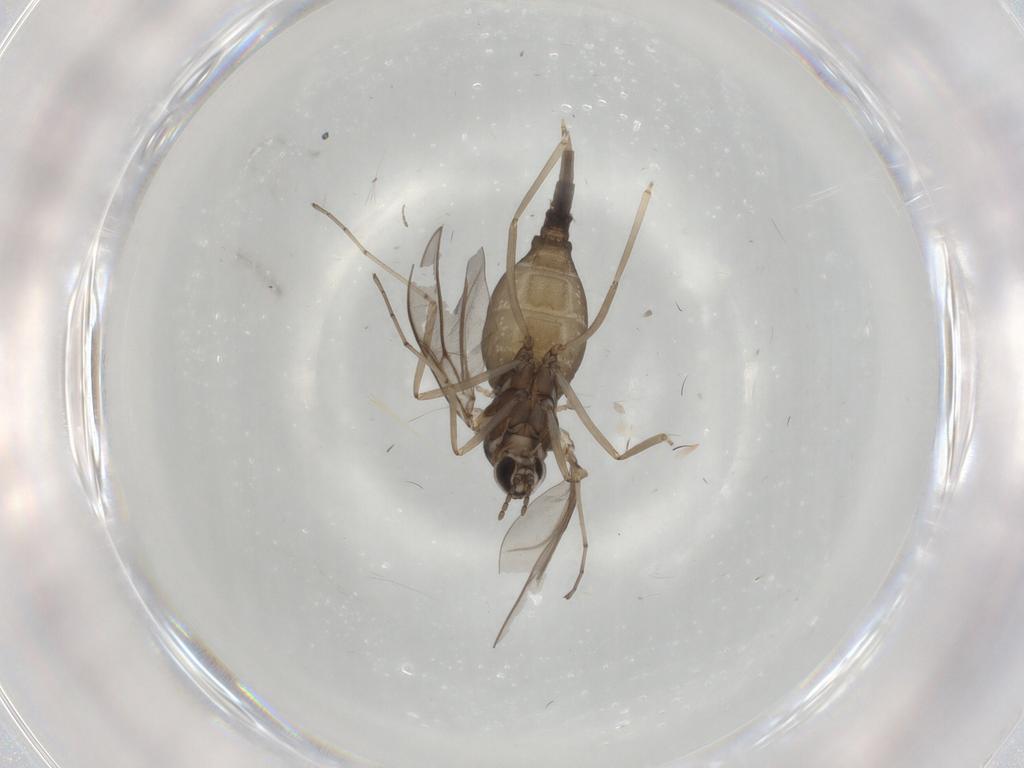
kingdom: Animalia
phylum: Arthropoda
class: Insecta
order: Diptera
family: Cecidomyiidae
